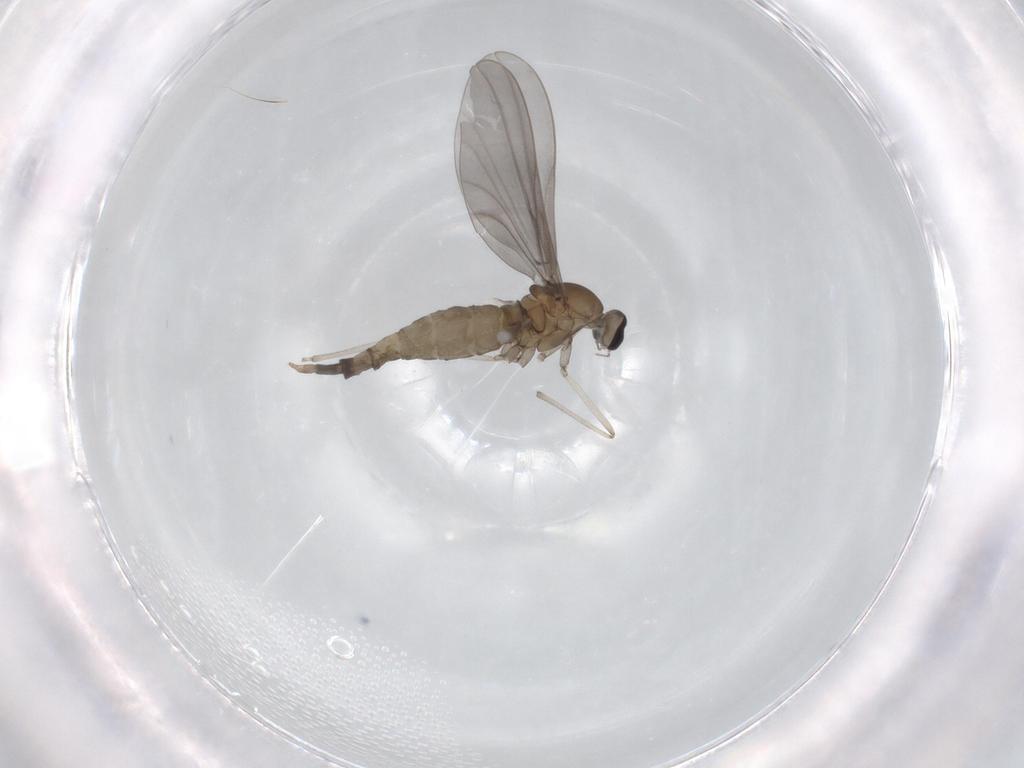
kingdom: Animalia
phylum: Arthropoda
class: Insecta
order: Diptera
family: Cecidomyiidae
